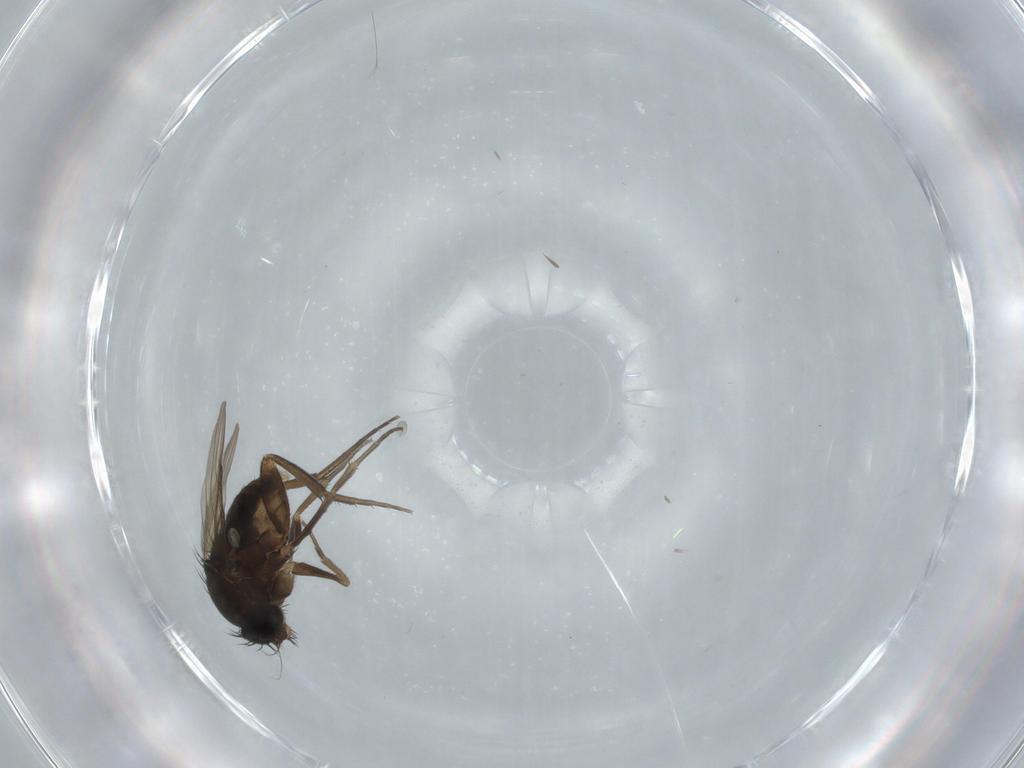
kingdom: Animalia
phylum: Arthropoda
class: Insecta
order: Diptera
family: Phoridae
